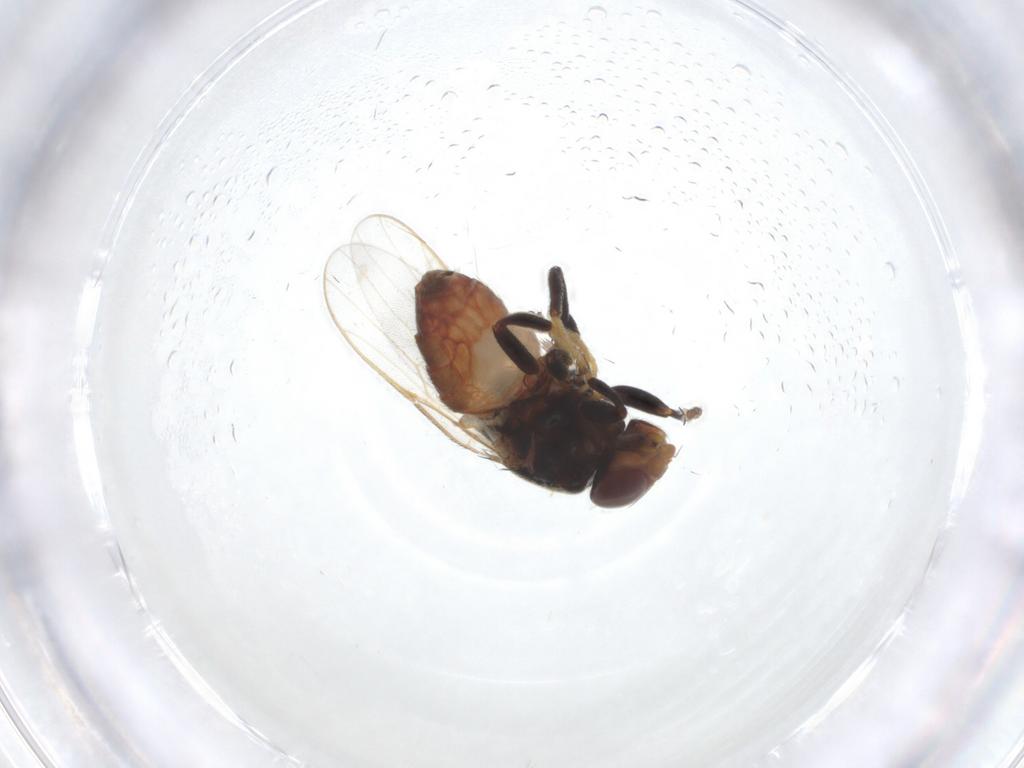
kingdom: Animalia
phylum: Arthropoda
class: Insecta
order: Diptera
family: Chloropidae
